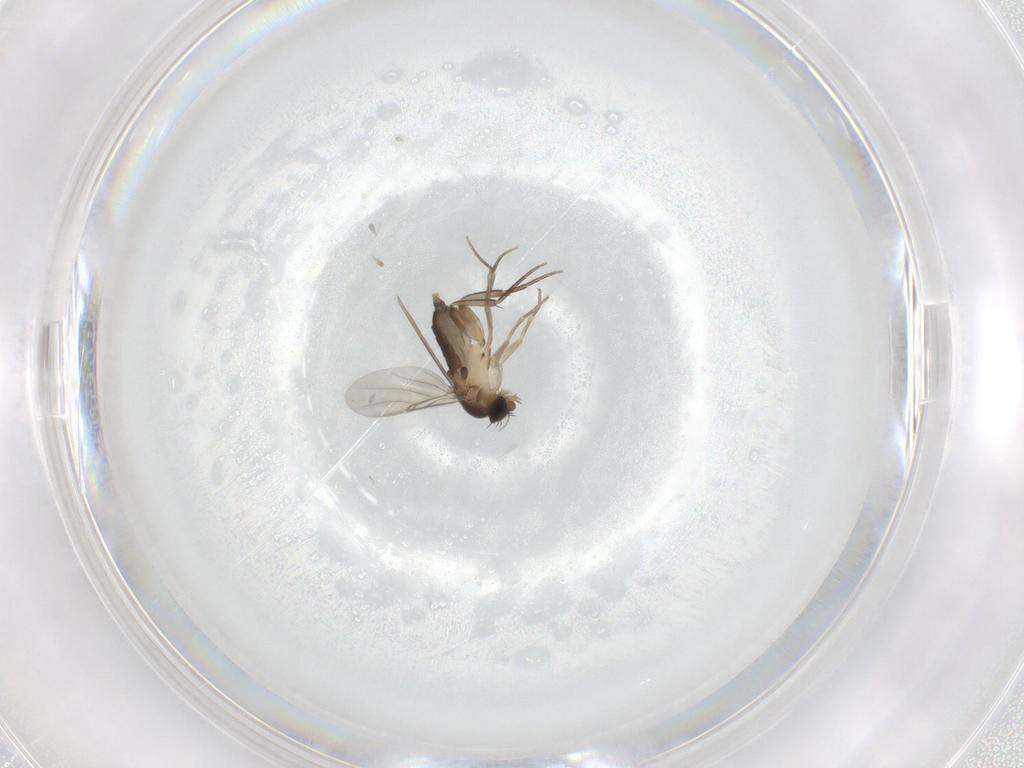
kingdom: Animalia
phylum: Arthropoda
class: Insecta
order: Diptera
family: Phoridae
